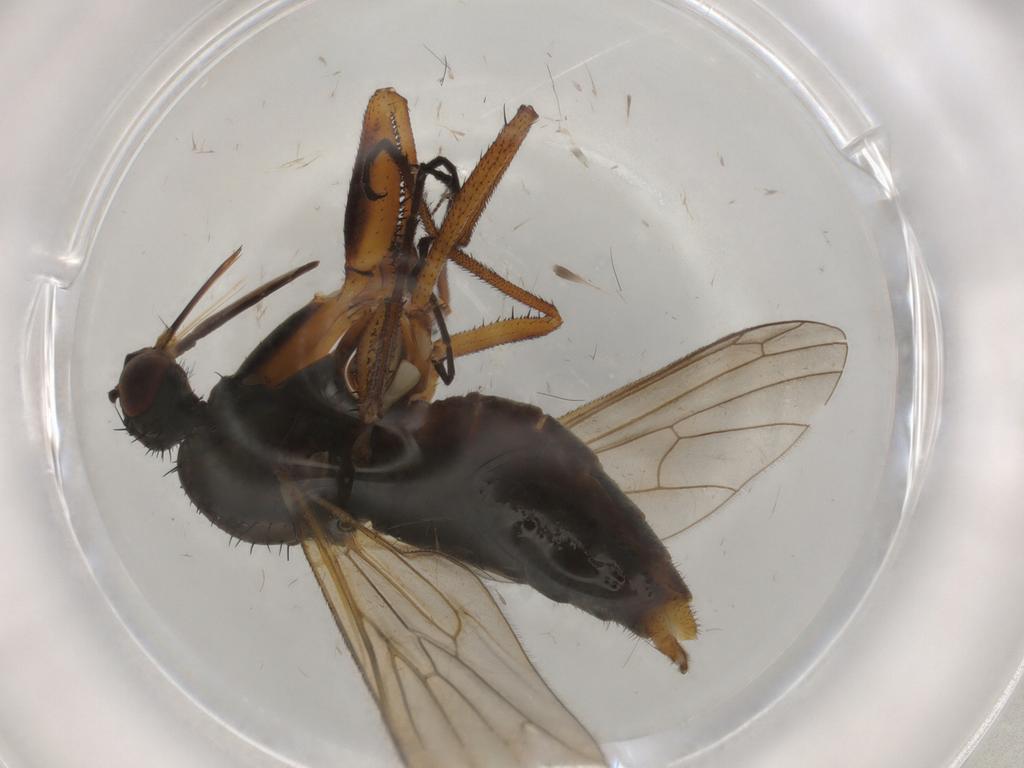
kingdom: Animalia
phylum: Arthropoda
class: Insecta
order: Diptera
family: Empididae
